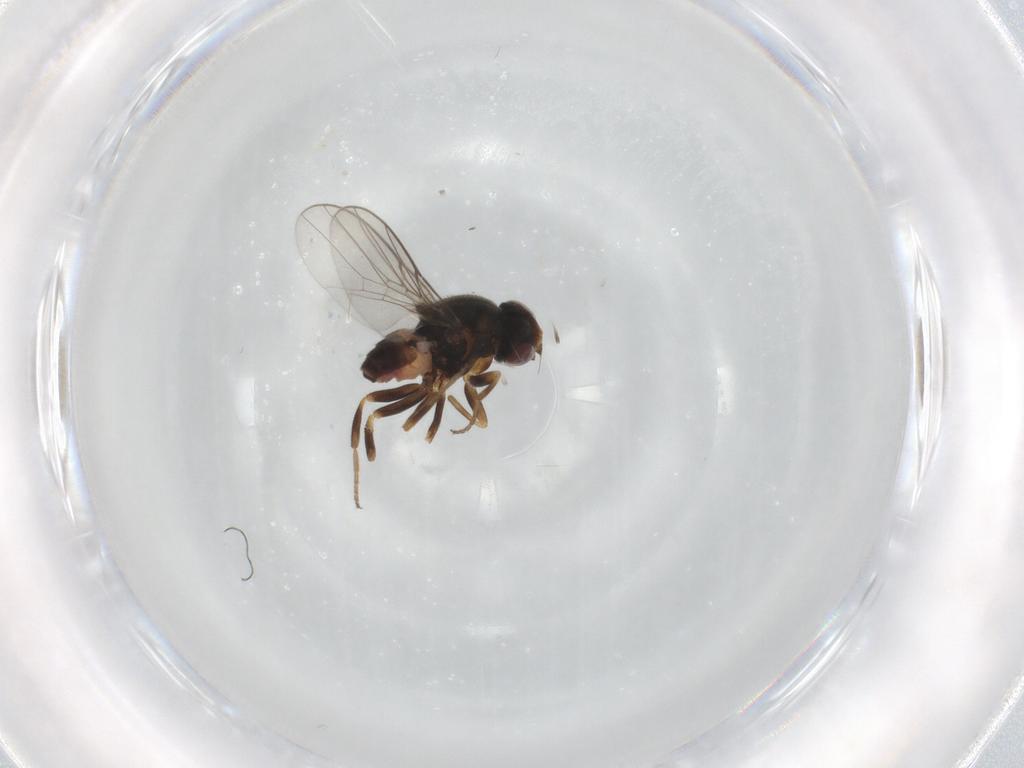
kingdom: Animalia
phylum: Arthropoda
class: Insecta
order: Diptera
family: Chloropidae
